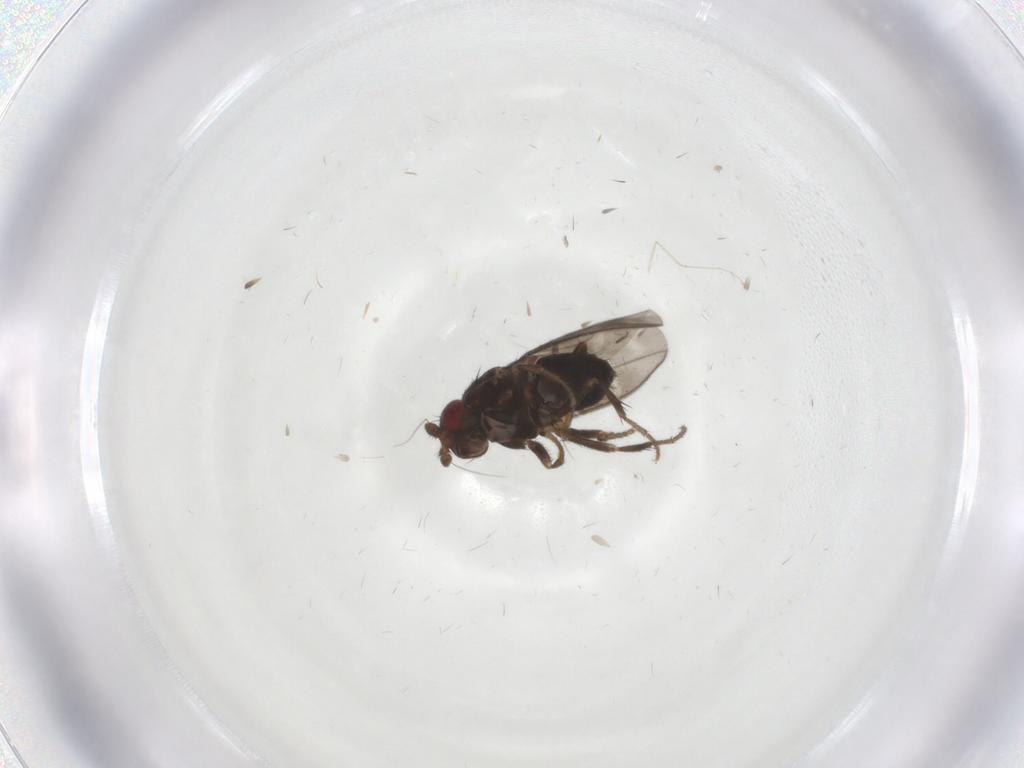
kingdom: Animalia
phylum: Arthropoda
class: Insecta
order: Diptera
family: Sphaeroceridae
